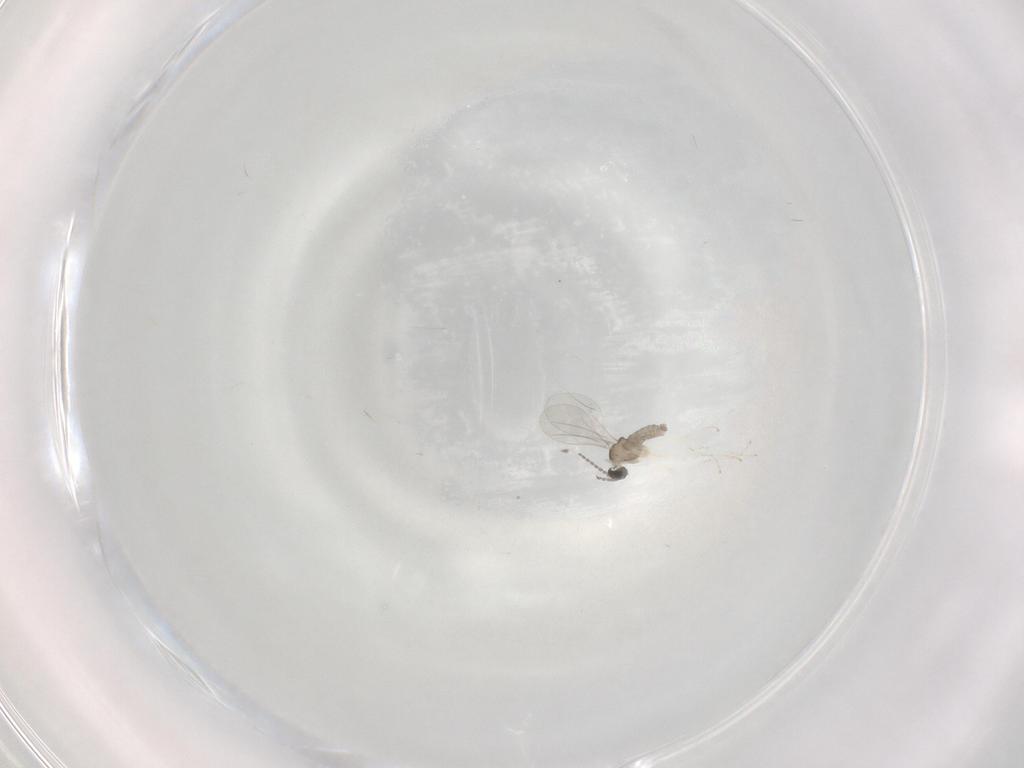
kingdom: Animalia
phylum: Arthropoda
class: Insecta
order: Diptera
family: Cecidomyiidae
